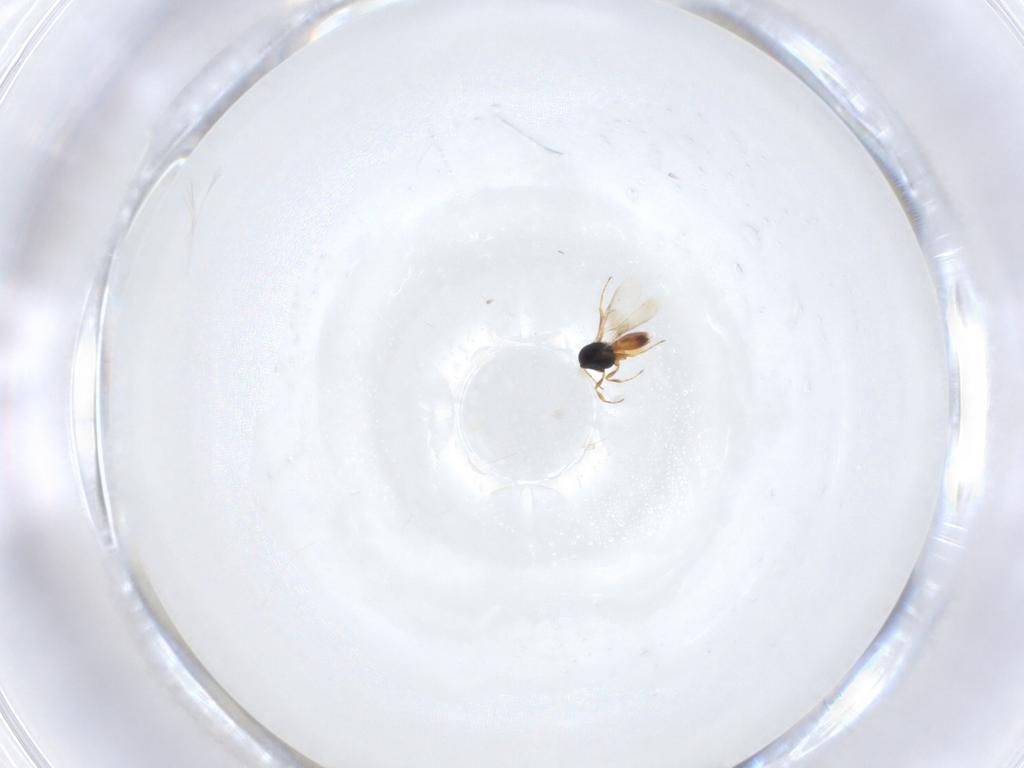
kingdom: Animalia
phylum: Arthropoda
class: Insecta
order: Hymenoptera
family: Scelionidae
